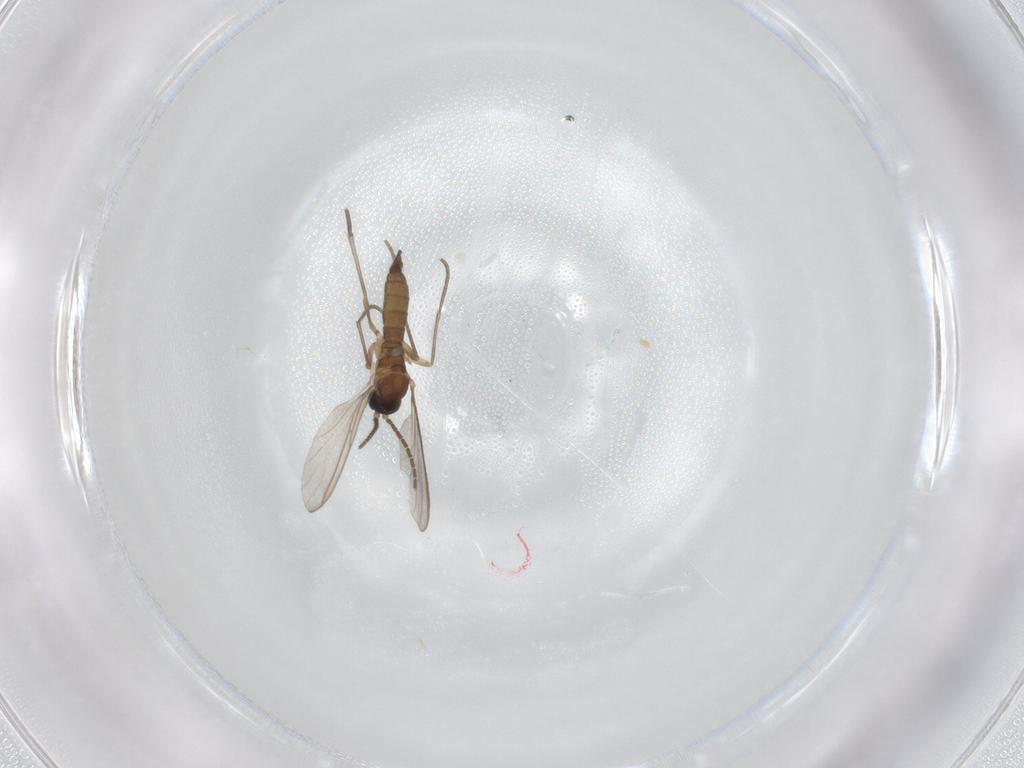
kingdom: Animalia
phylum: Arthropoda
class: Insecta
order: Diptera
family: Sciaridae
